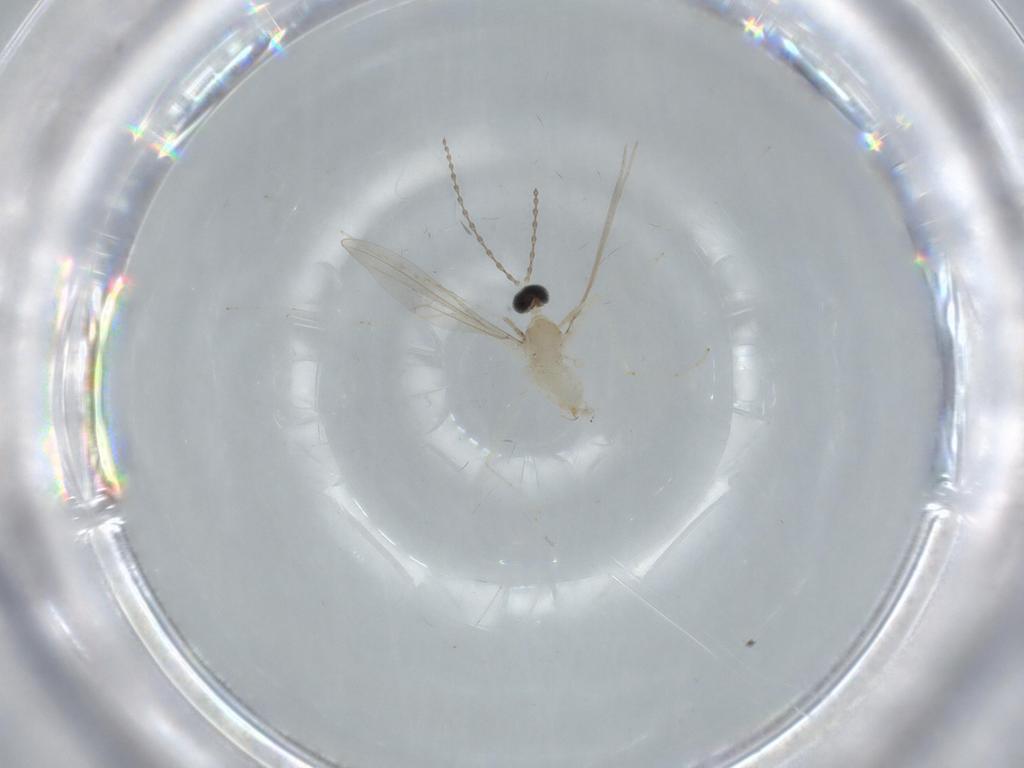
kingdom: Animalia
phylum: Arthropoda
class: Insecta
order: Diptera
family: Cecidomyiidae
